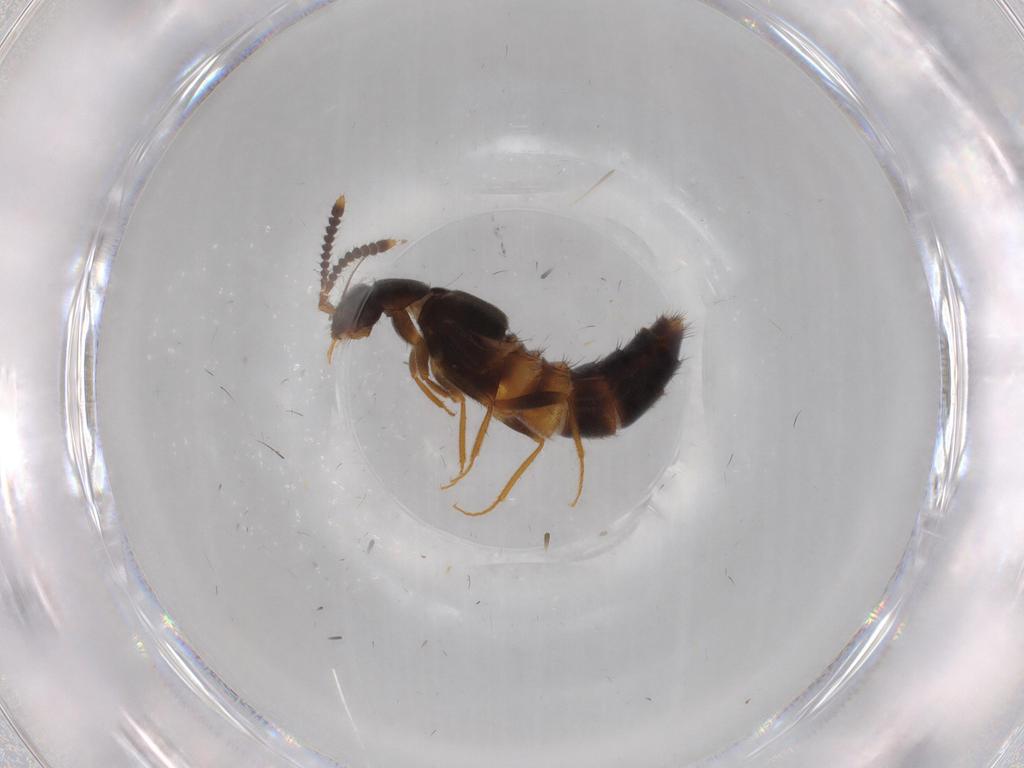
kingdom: Animalia
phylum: Arthropoda
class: Insecta
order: Coleoptera
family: Staphylinidae
